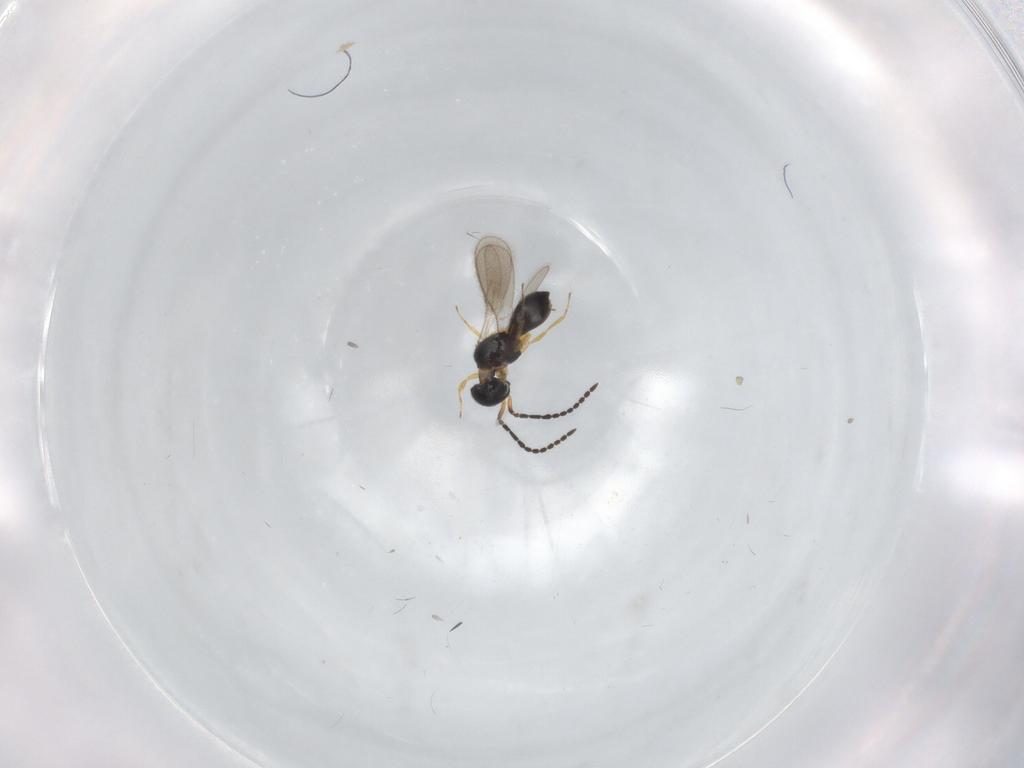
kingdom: Animalia
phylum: Arthropoda
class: Insecta
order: Hymenoptera
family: Scelionidae
